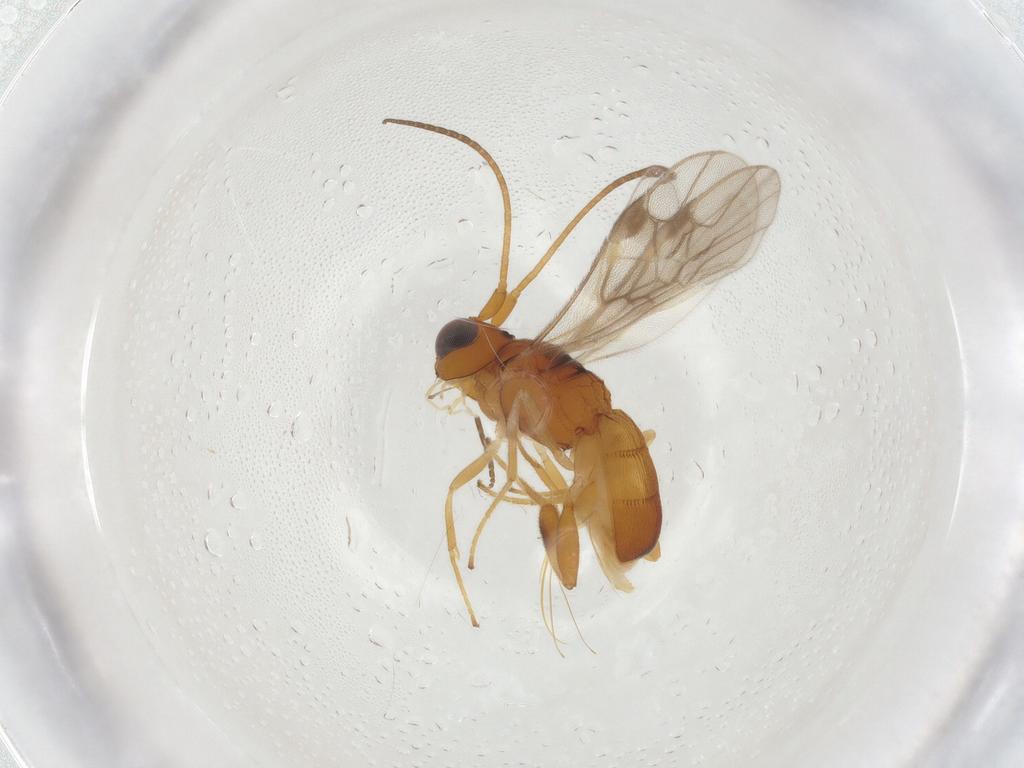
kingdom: Animalia
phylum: Arthropoda
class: Insecta
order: Hymenoptera
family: Braconidae
